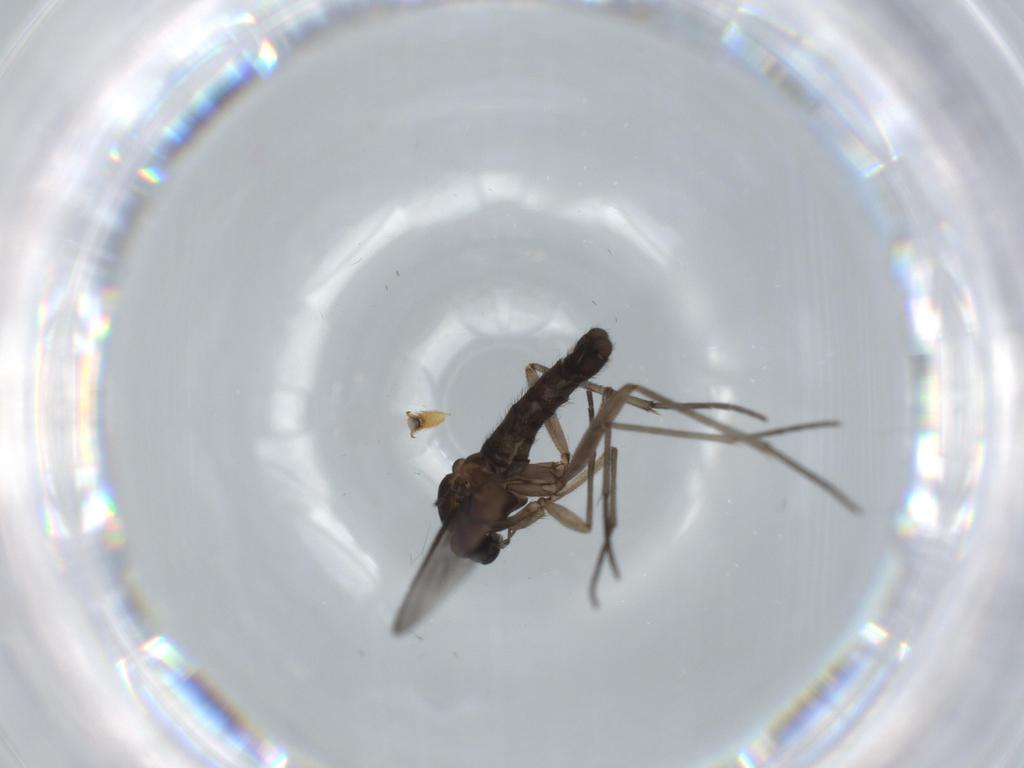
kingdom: Animalia
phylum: Arthropoda
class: Insecta
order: Diptera
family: Sciaridae
